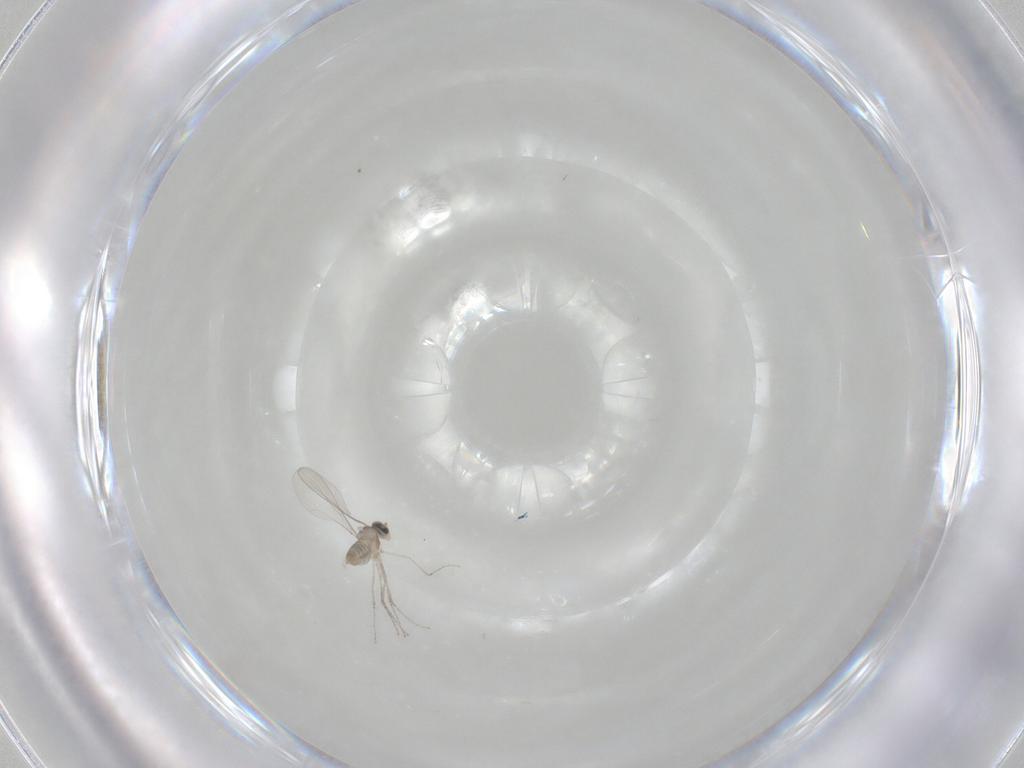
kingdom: Animalia
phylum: Arthropoda
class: Insecta
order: Diptera
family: Cecidomyiidae
